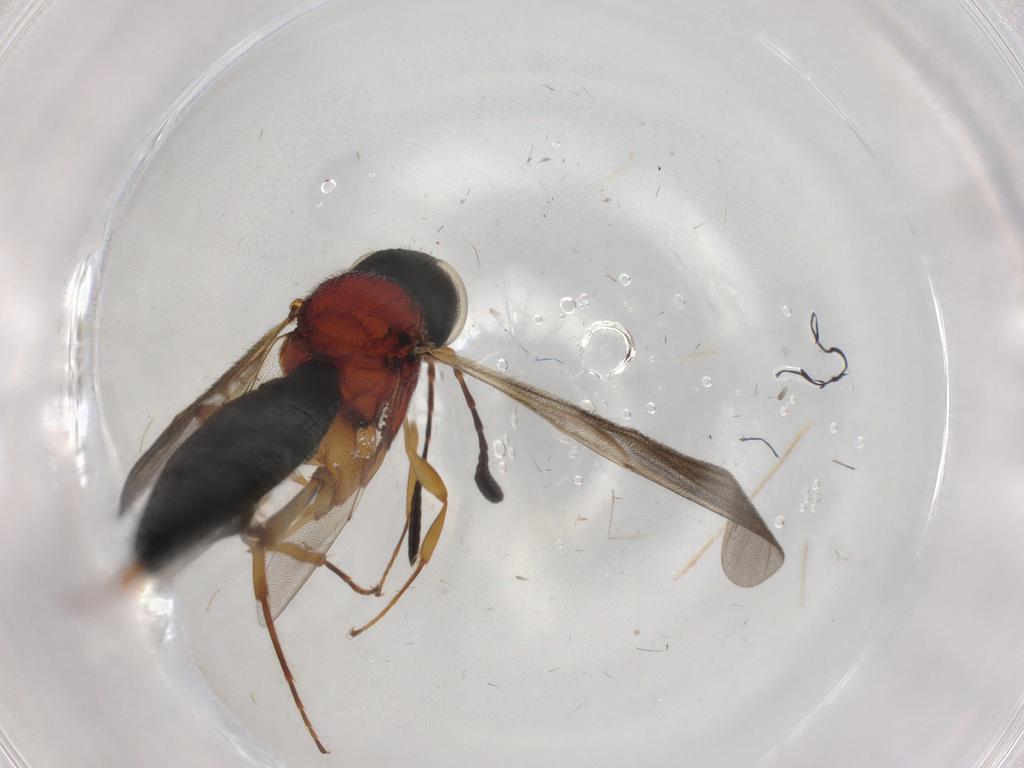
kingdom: Animalia
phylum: Arthropoda
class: Insecta
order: Hymenoptera
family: Scelionidae
